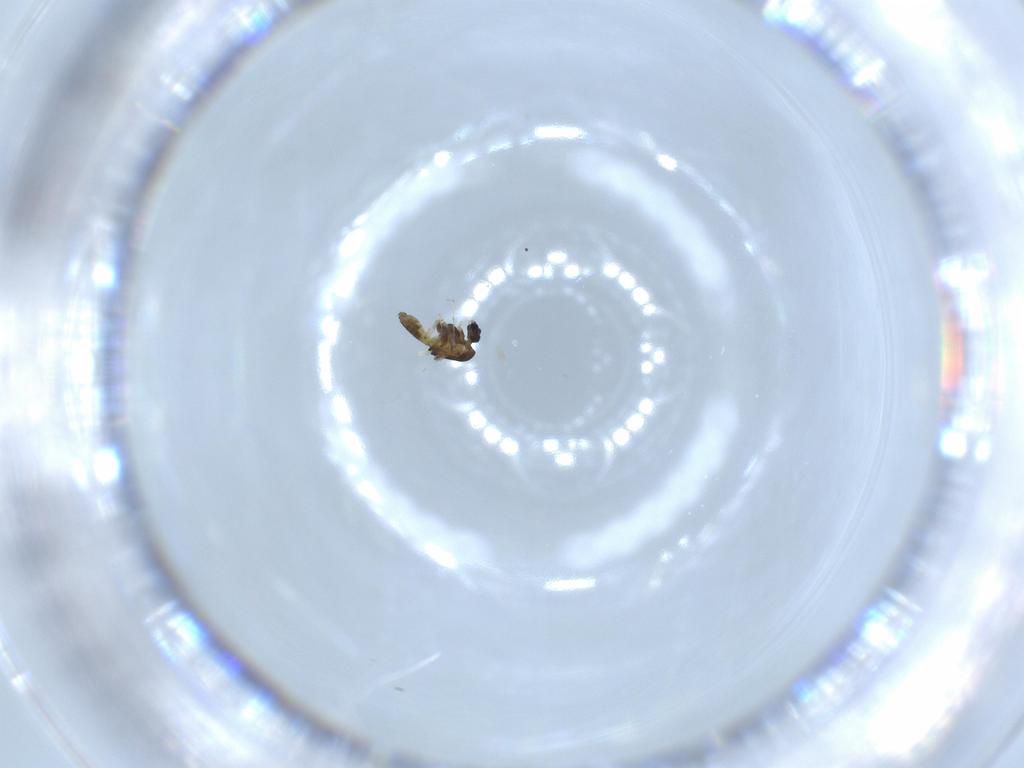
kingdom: Animalia
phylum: Arthropoda
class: Insecta
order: Diptera
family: Chironomidae
